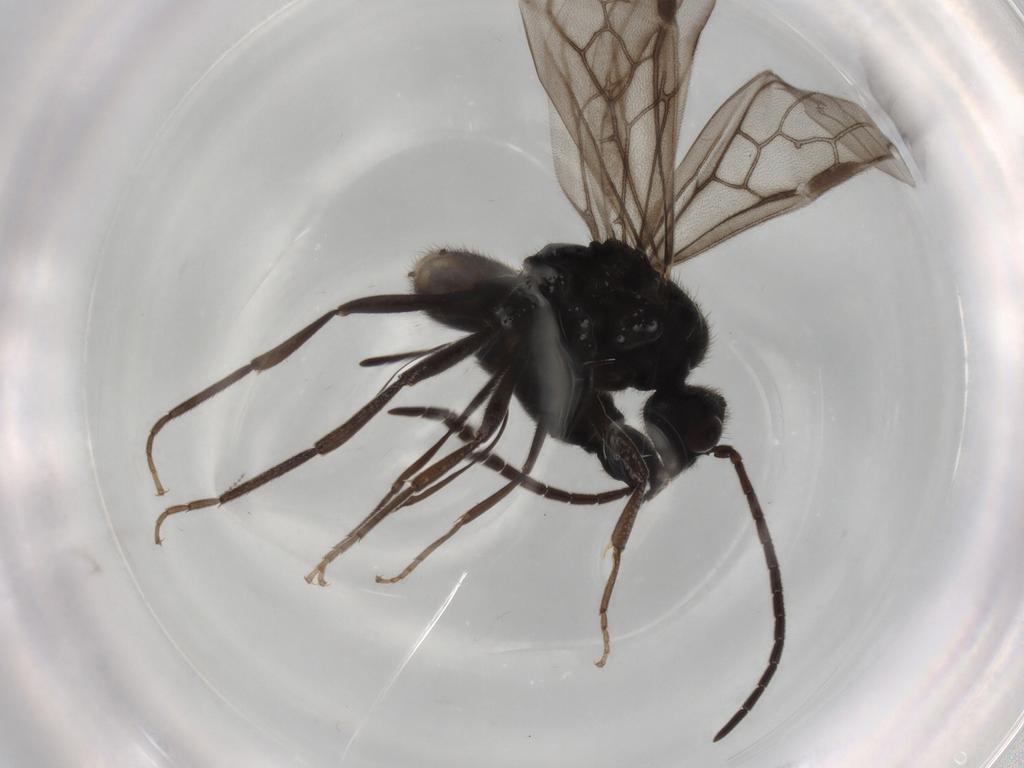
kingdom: Animalia
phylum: Arthropoda
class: Insecta
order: Hymenoptera
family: Formicidae
